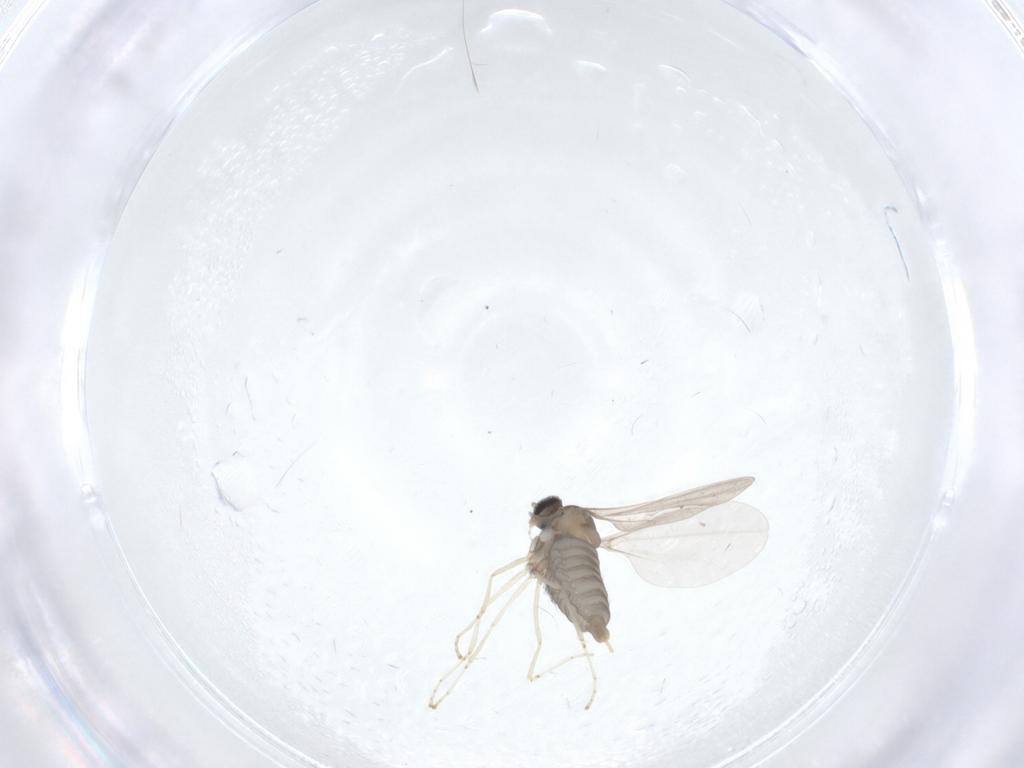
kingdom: Animalia
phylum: Arthropoda
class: Insecta
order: Diptera
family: Cecidomyiidae
